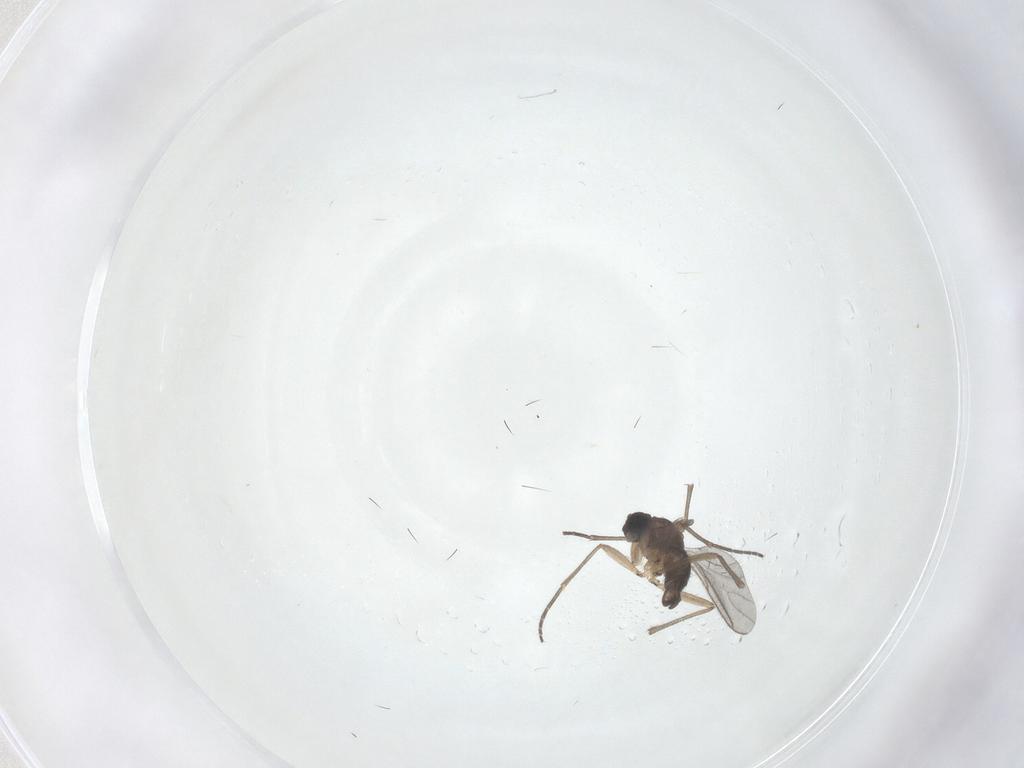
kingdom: Animalia
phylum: Arthropoda
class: Insecta
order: Diptera
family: Sciaridae
